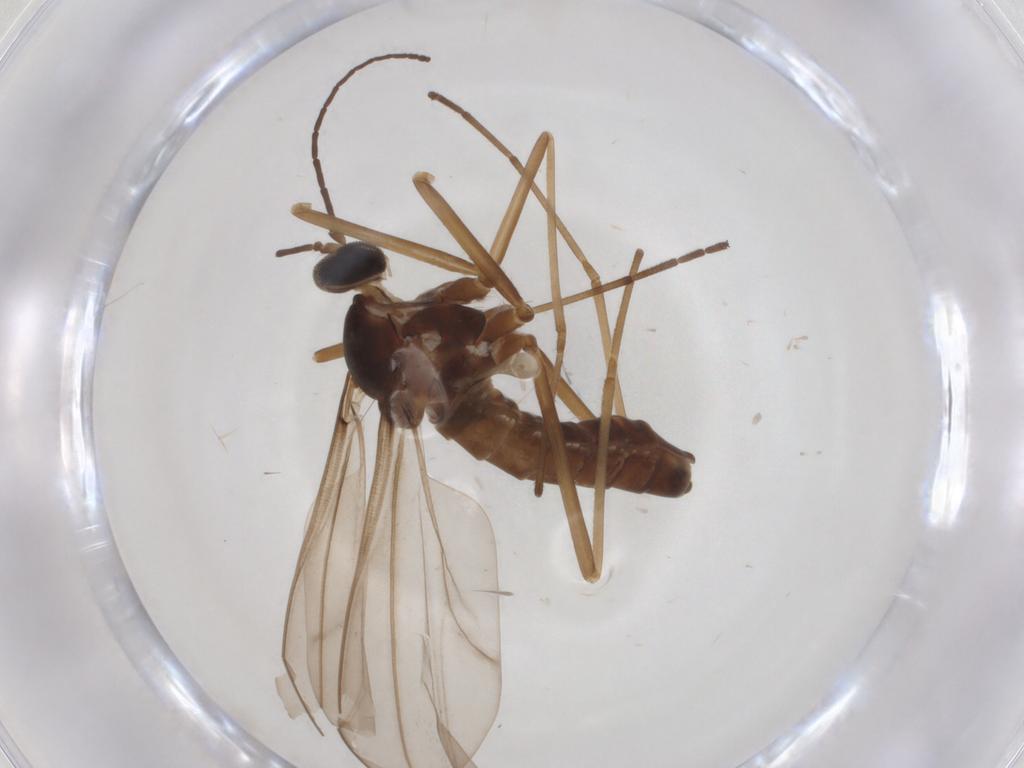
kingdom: Animalia
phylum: Arthropoda
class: Insecta
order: Diptera
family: Cecidomyiidae
